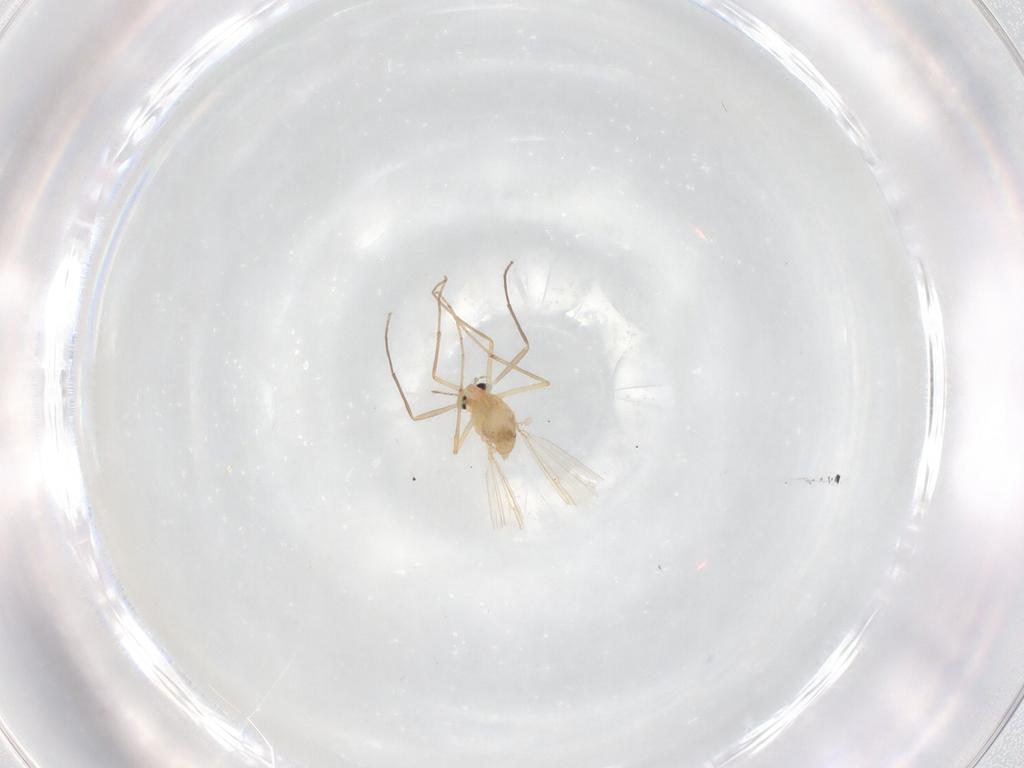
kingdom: Animalia
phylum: Arthropoda
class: Insecta
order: Diptera
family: Chironomidae
